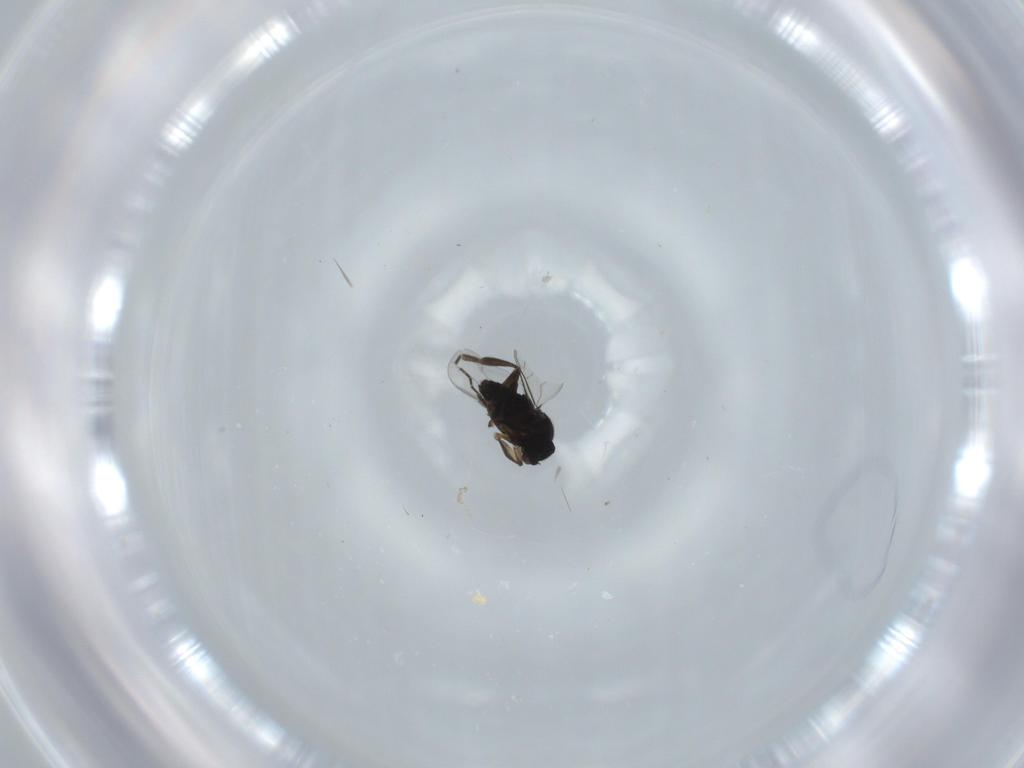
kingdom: Animalia
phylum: Arthropoda
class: Insecta
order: Diptera
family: Phoridae
